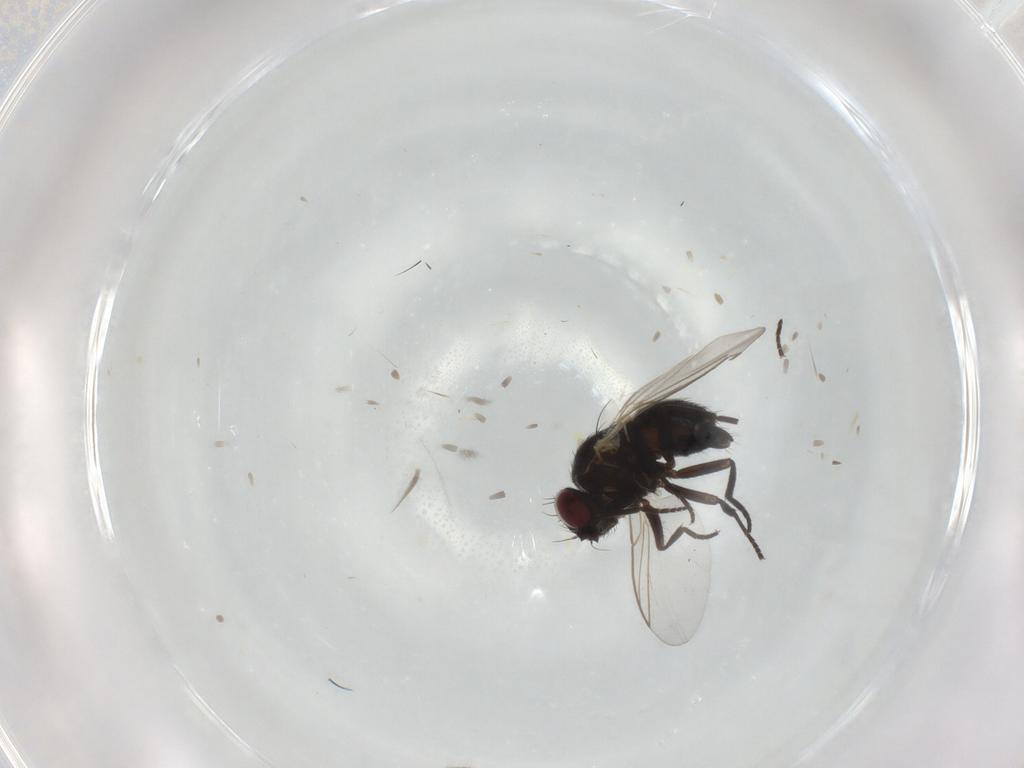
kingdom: Animalia
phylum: Arthropoda
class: Insecta
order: Diptera
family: Agromyzidae
